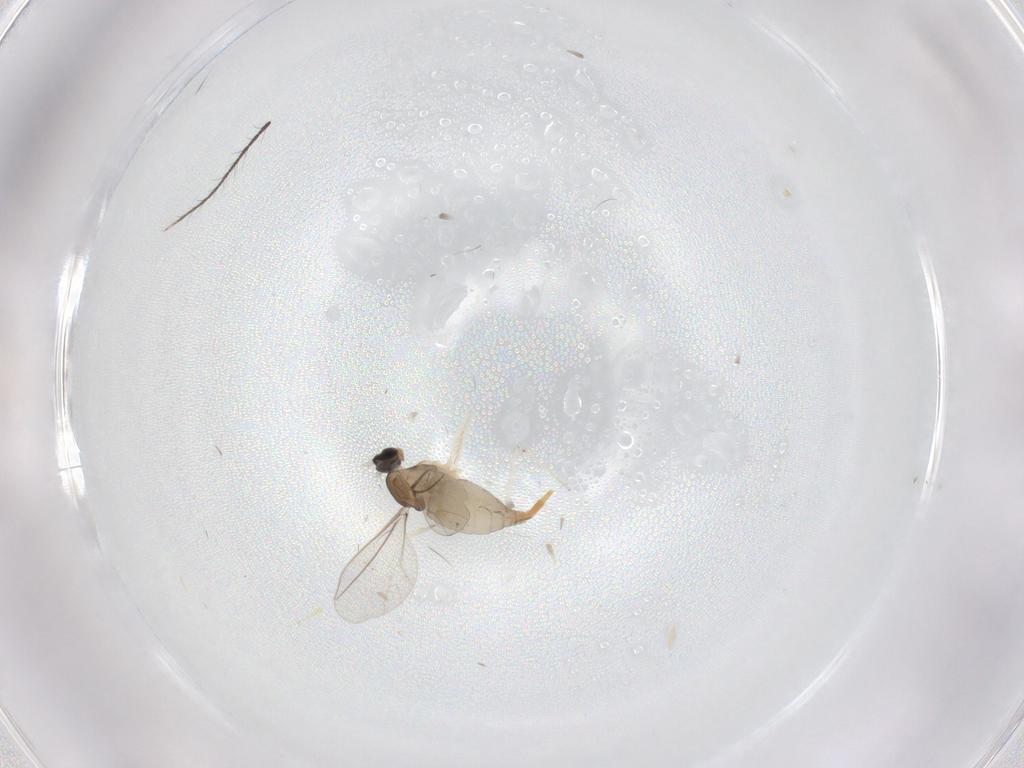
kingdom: Animalia
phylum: Arthropoda
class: Insecta
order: Diptera
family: Cecidomyiidae
